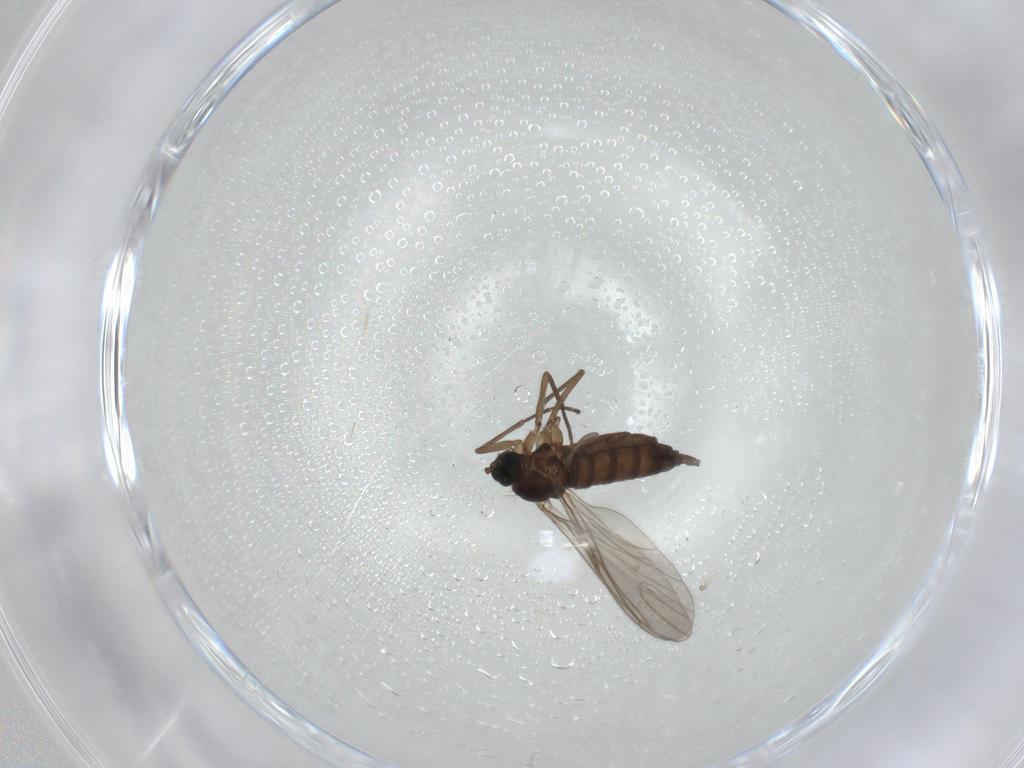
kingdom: Animalia
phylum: Arthropoda
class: Insecta
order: Diptera
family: Sciaridae
